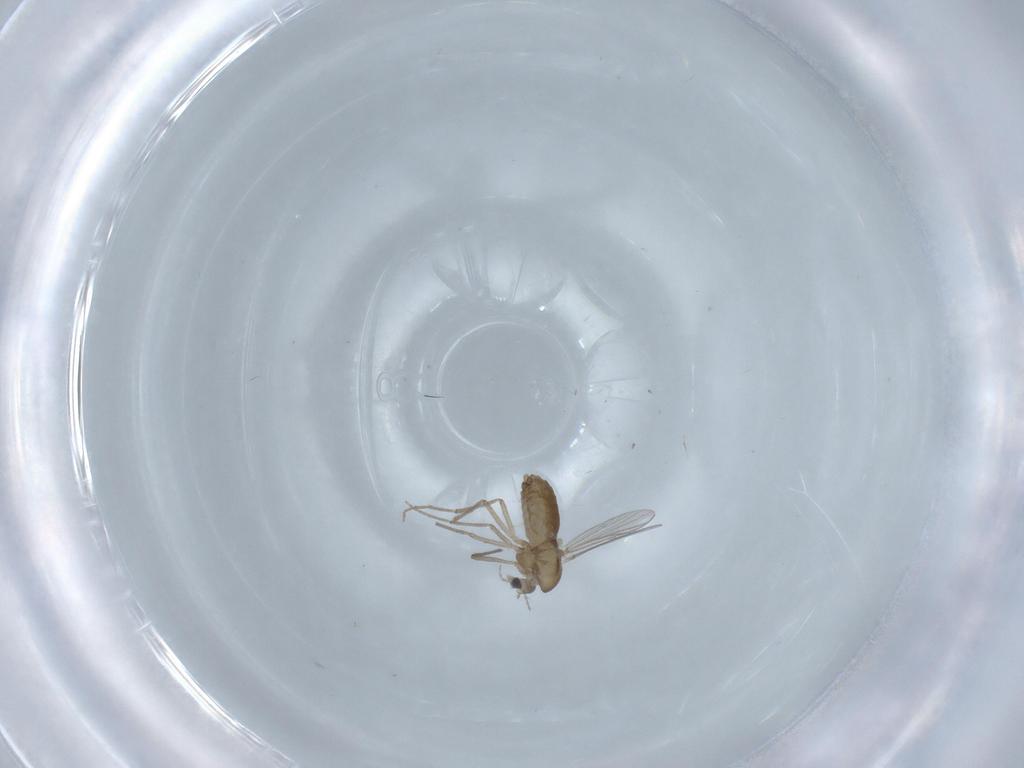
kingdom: Animalia
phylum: Arthropoda
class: Insecta
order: Diptera
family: Chironomidae
